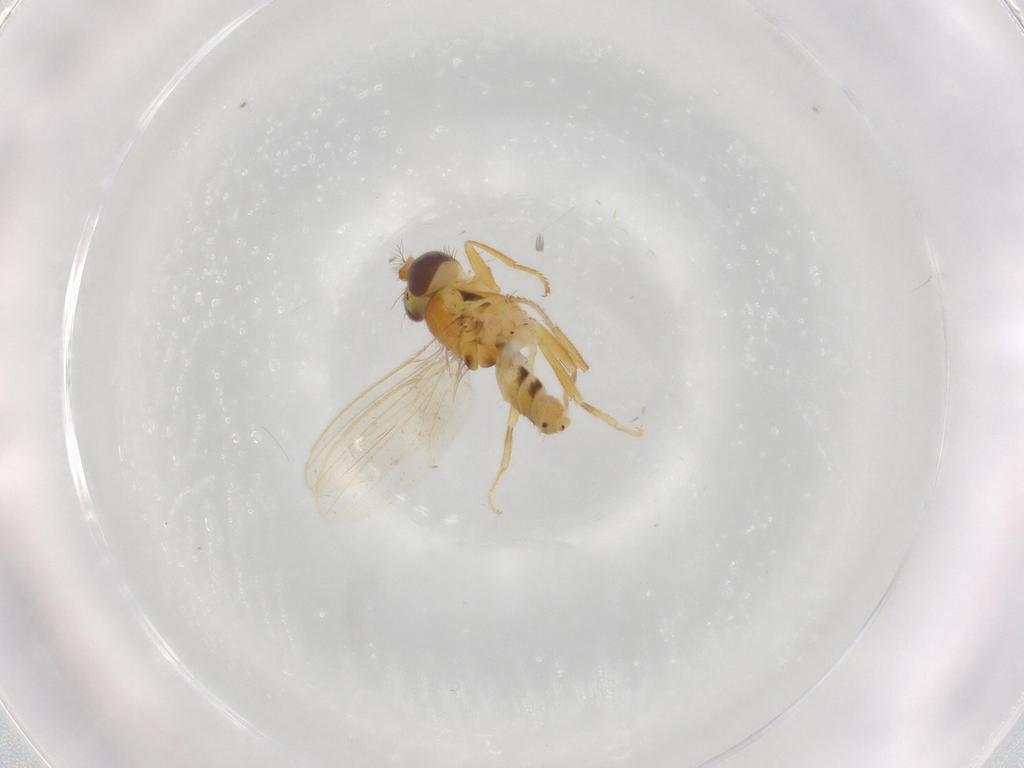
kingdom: Animalia
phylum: Arthropoda
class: Insecta
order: Diptera
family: Periscelididae
